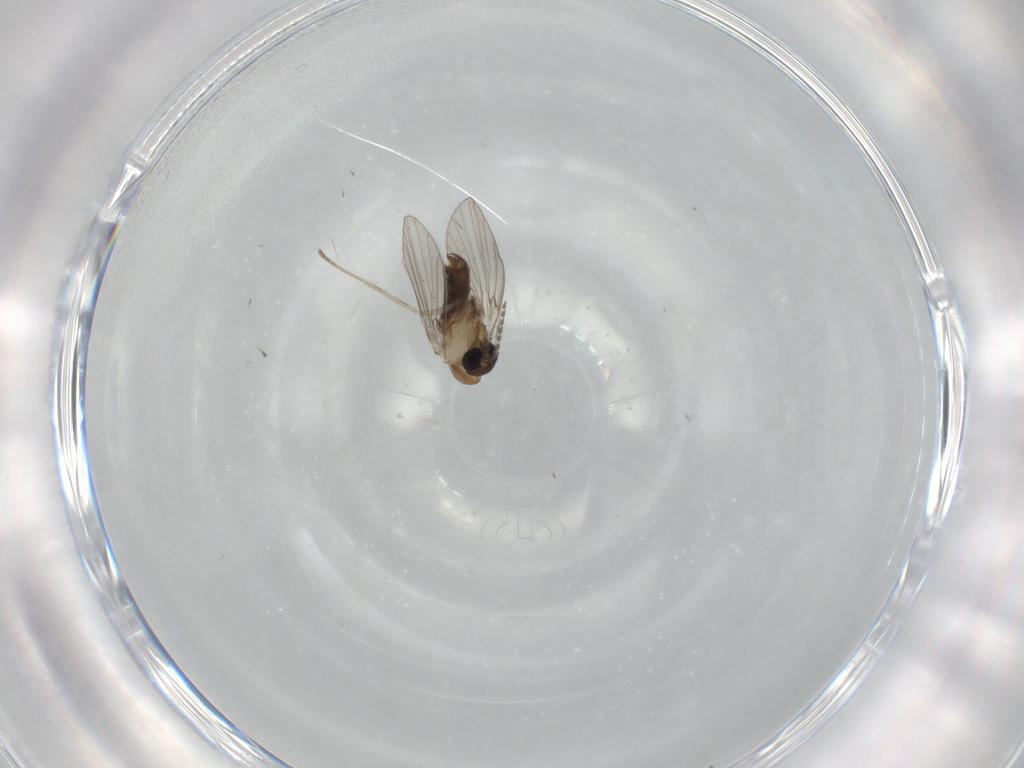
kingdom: Animalia
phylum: Arthropoda
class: Insecta
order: Diptera
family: Psychodidae
